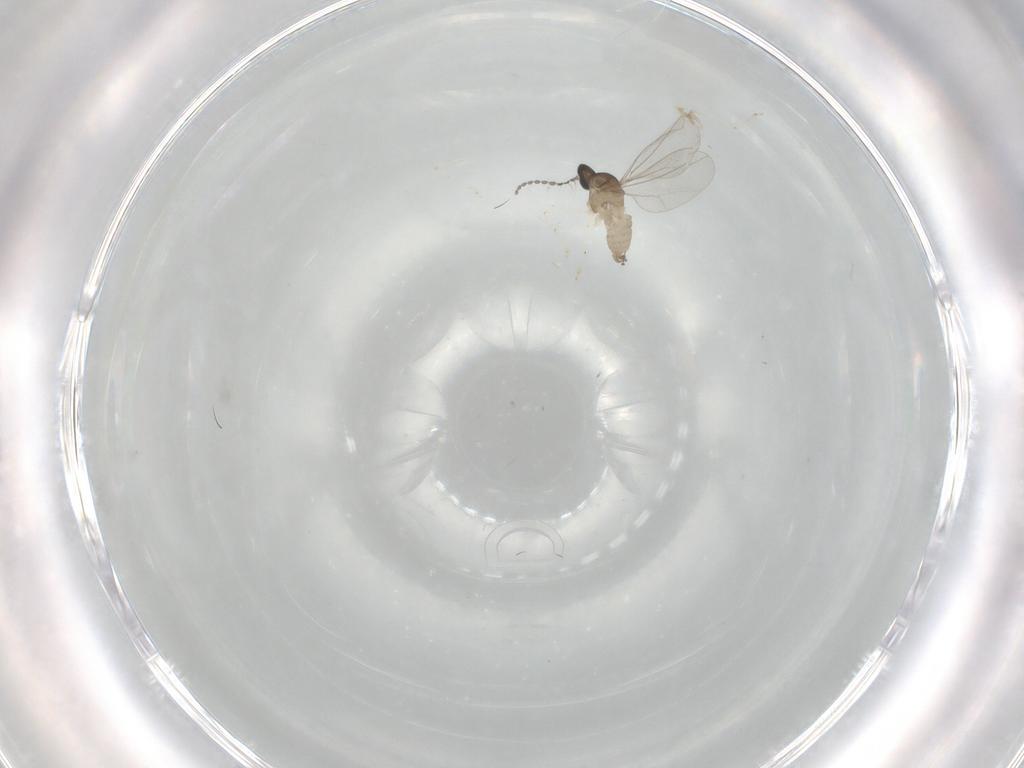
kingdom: Animalia
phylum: Arthropoda
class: Insecta
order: Diptera
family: Cecidomyiidae
